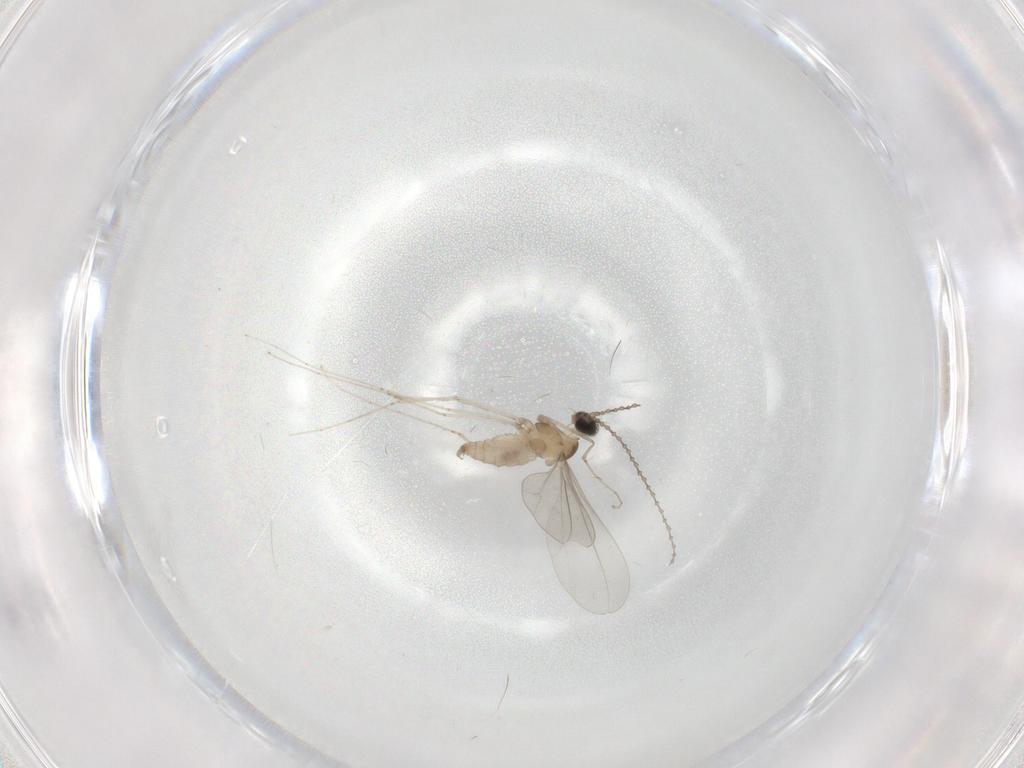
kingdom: Animalia
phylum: Arthropoda
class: Insecta
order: Diptera
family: Cecidomyiidae
